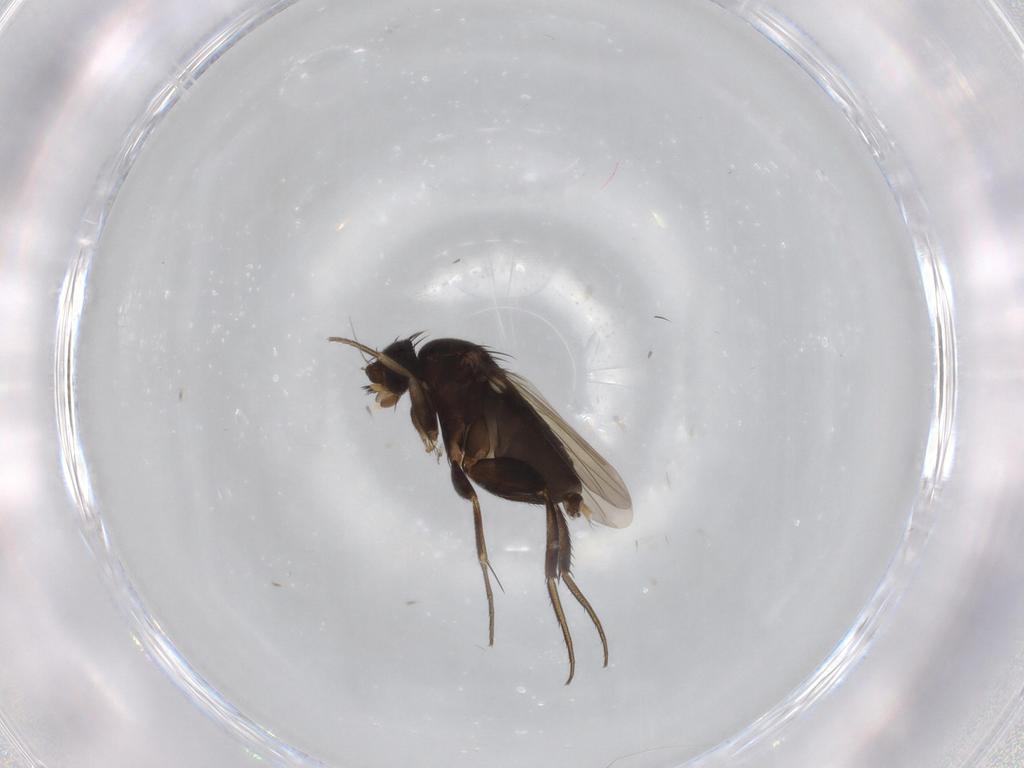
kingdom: Animalia
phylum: Arthropoda
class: Insecta
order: Diptera
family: Phoridae
